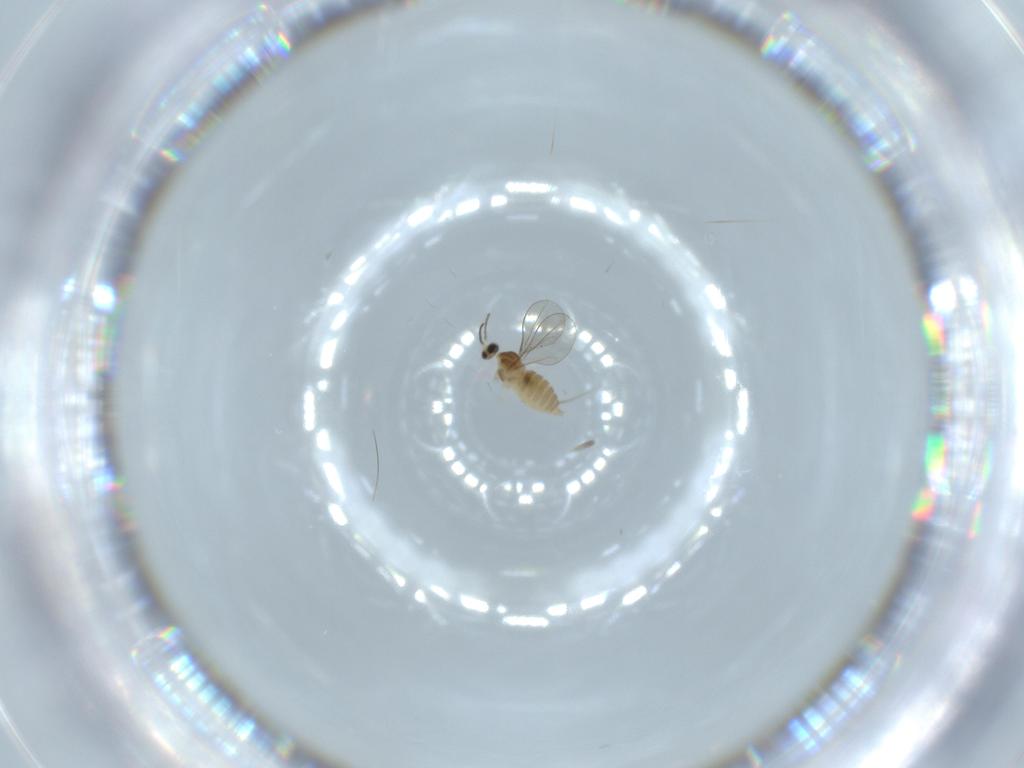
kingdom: Animalia
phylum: Arthropoda
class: Insecta
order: Diptera
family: Cecidomyiidae
